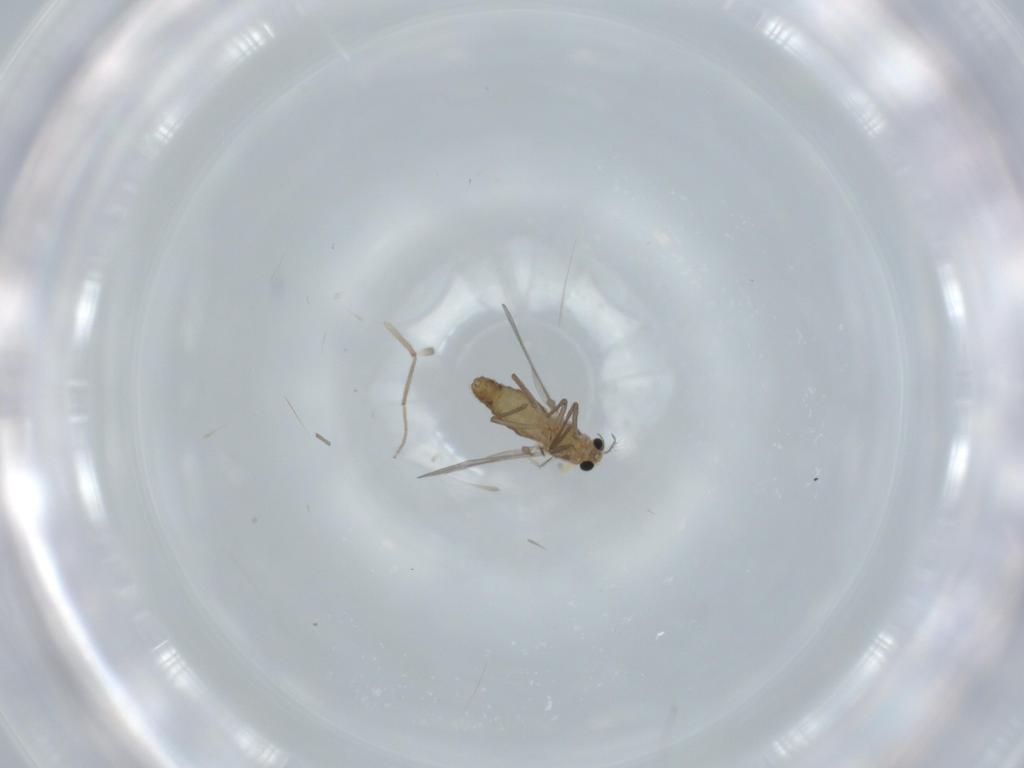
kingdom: Animalia
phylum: Arthropoda
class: Insecta
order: Diptera
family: Chironomidae
